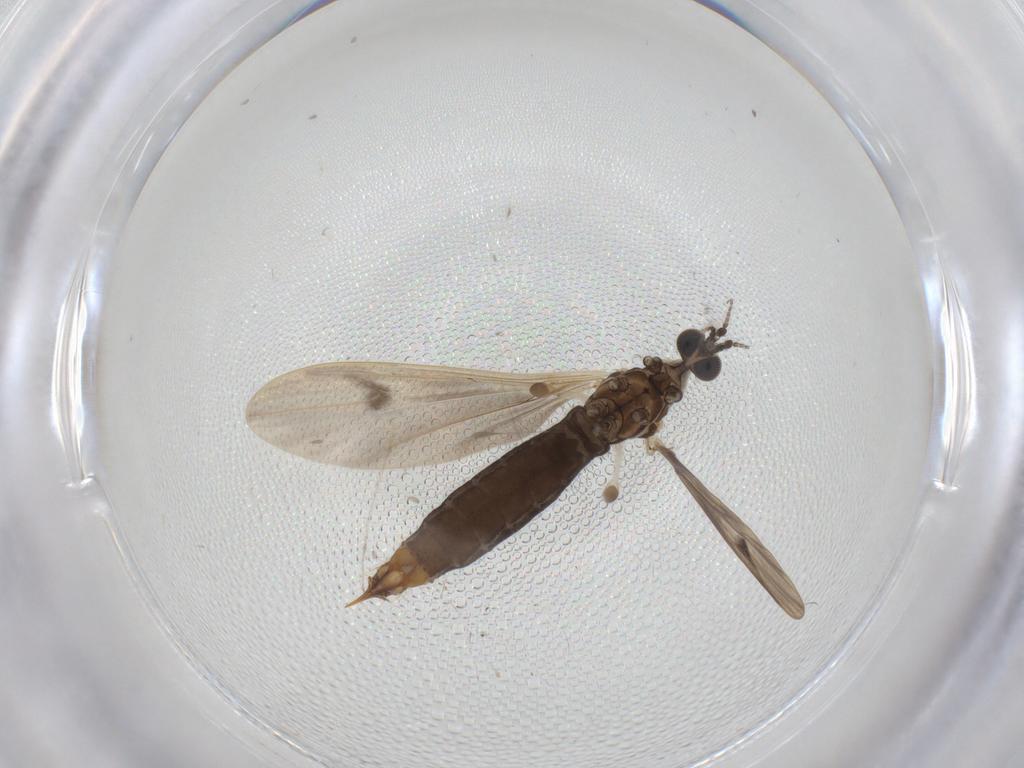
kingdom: Animalia
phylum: Arthropoda
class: Insecta
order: Diptera
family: Limoniidae
